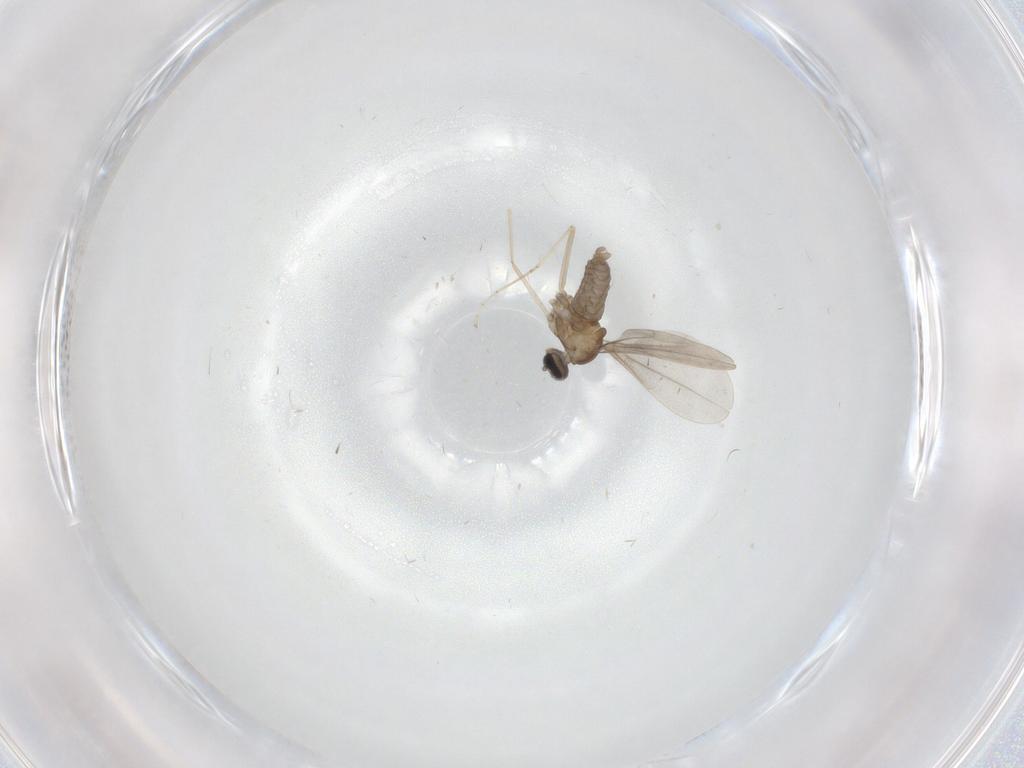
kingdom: Animalia
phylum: Arthropoda
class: Insecta
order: Diptera
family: Cecidomyiidae
